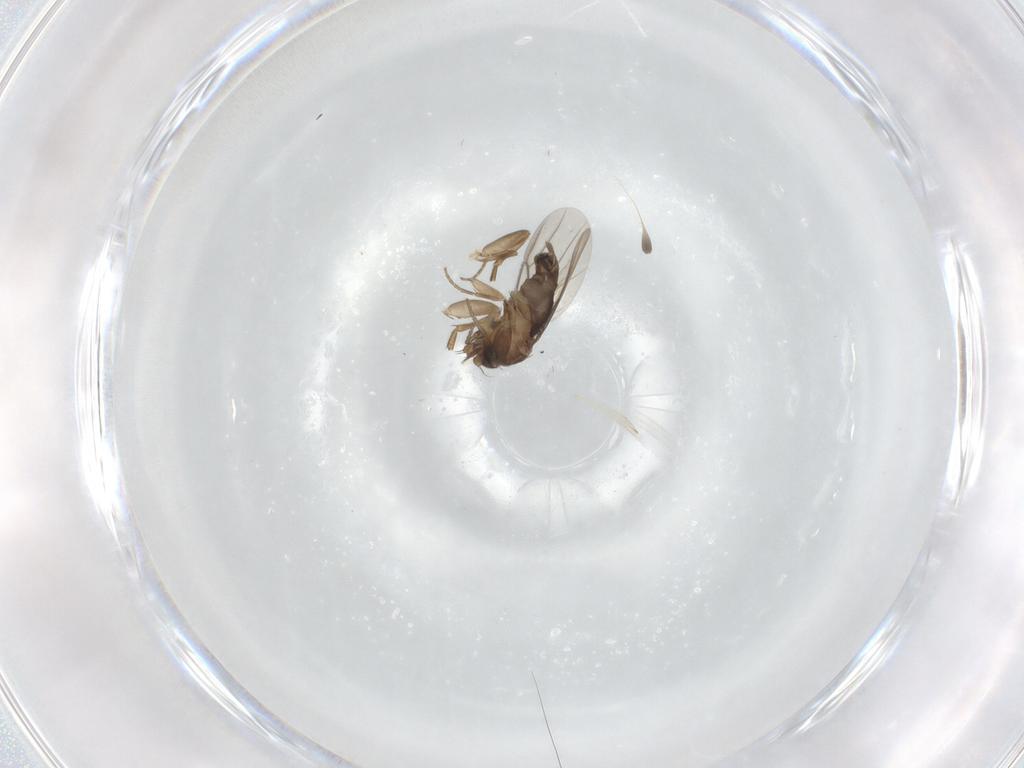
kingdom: Animalia
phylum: Arthropoda
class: Insecta
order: Diptera
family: Phoridae
